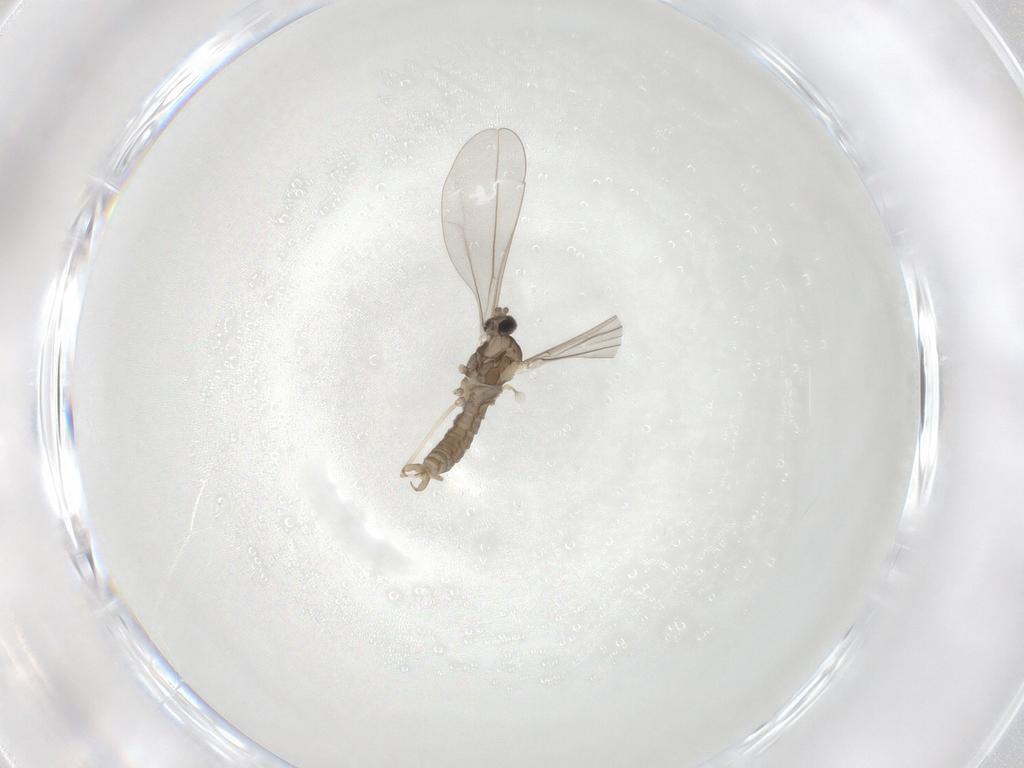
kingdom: Animalia
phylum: Arthropoda
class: Insecta
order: Diptera
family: Cecidomyiidae
